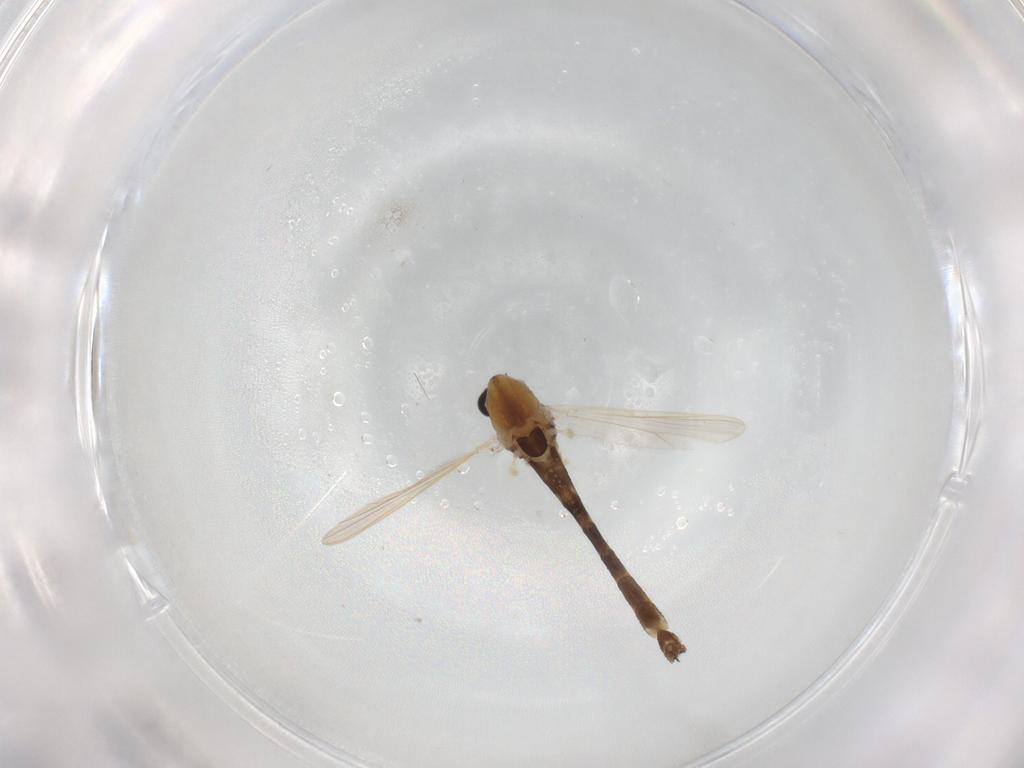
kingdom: Animalia
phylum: Arthropoda
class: Insecta
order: Diptera
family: Chironomidae
